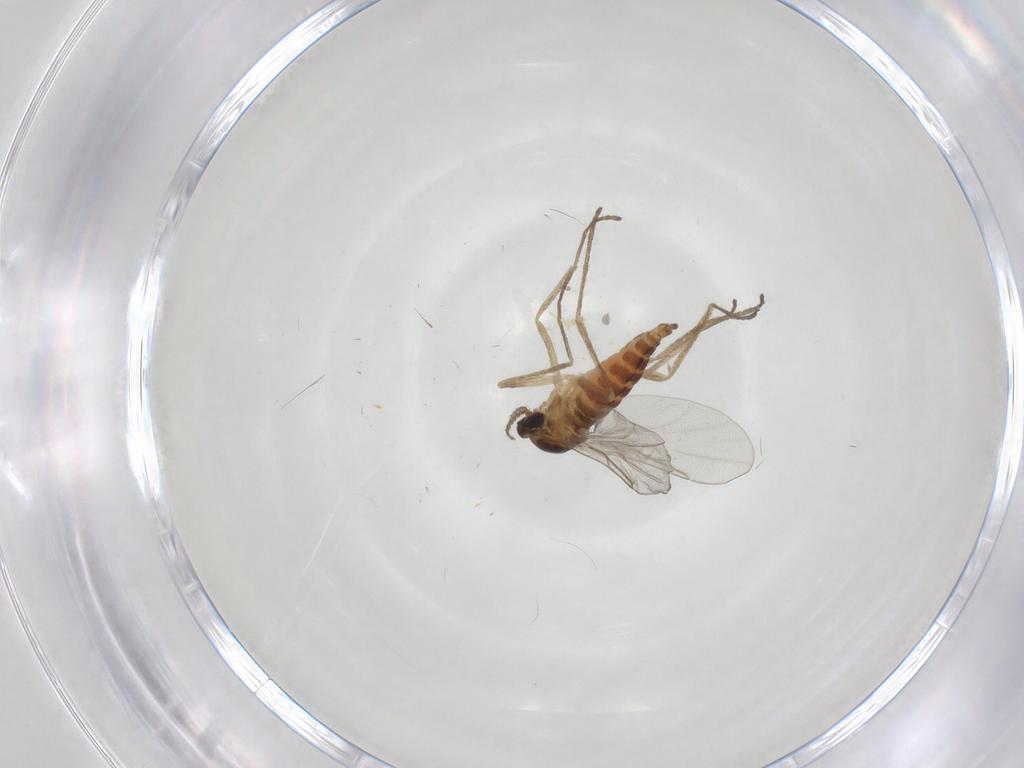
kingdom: Animalia
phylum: Arthropoda
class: Insecta
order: Diptera
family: Cecidomyiidae
